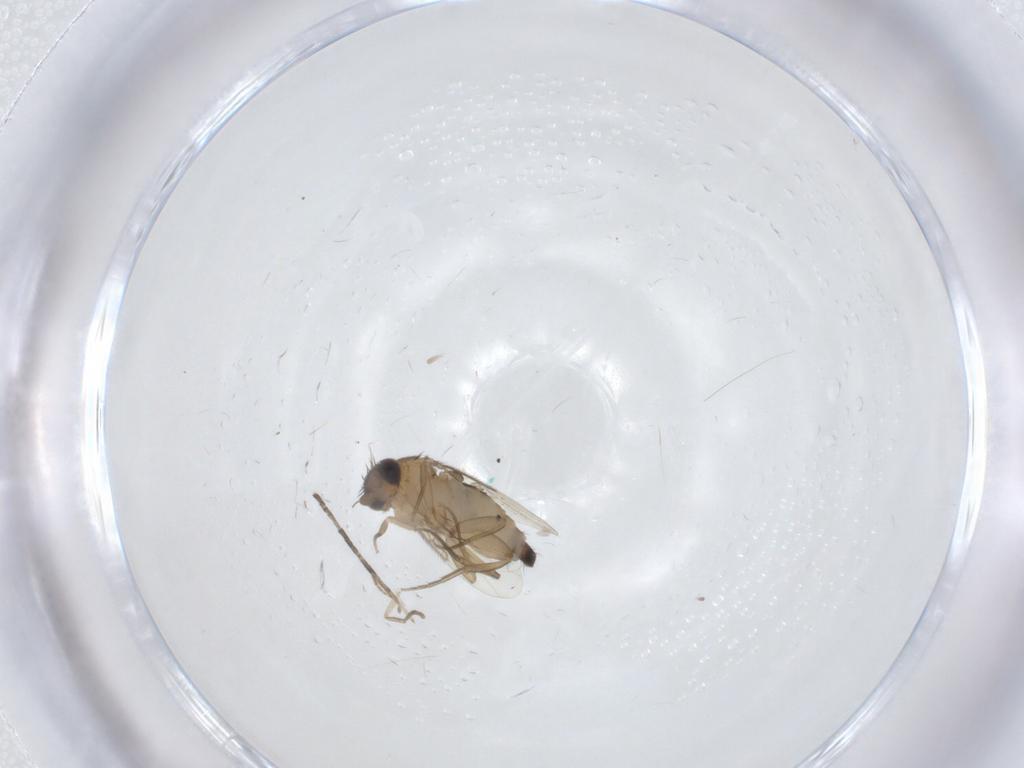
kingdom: Animalia
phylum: Arthropoda
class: Insecta
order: Diptera
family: Phoridae
